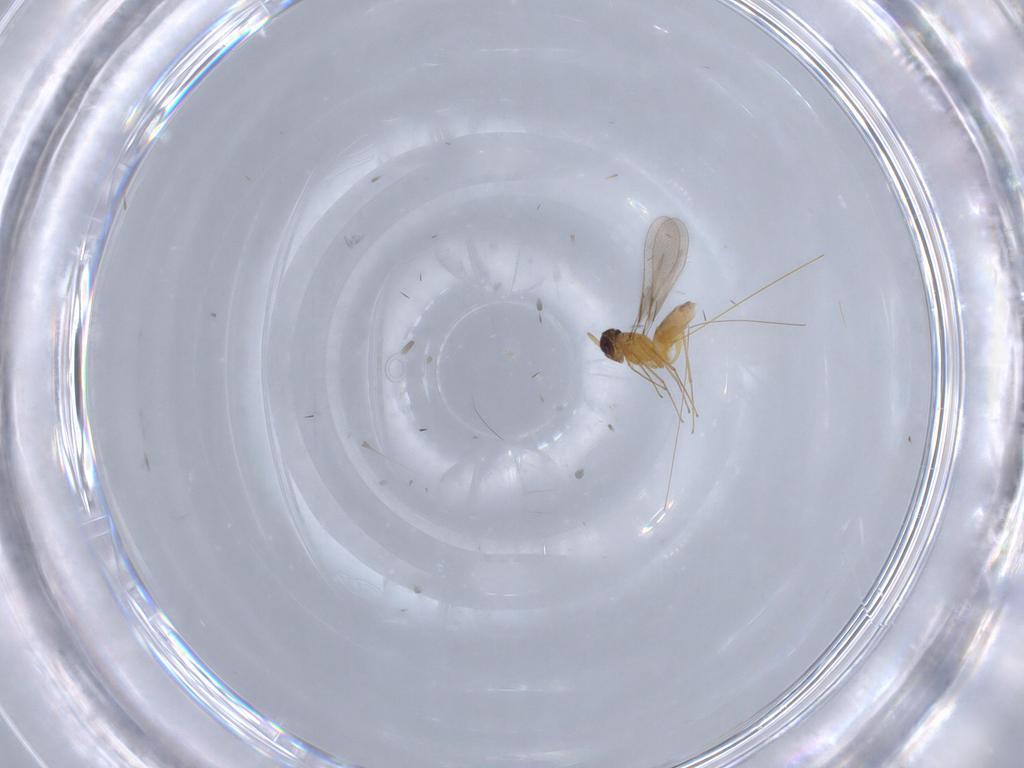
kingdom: Animalia
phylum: Arthropoda
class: Insecta
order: Hymenoptera
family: Mymaridae
